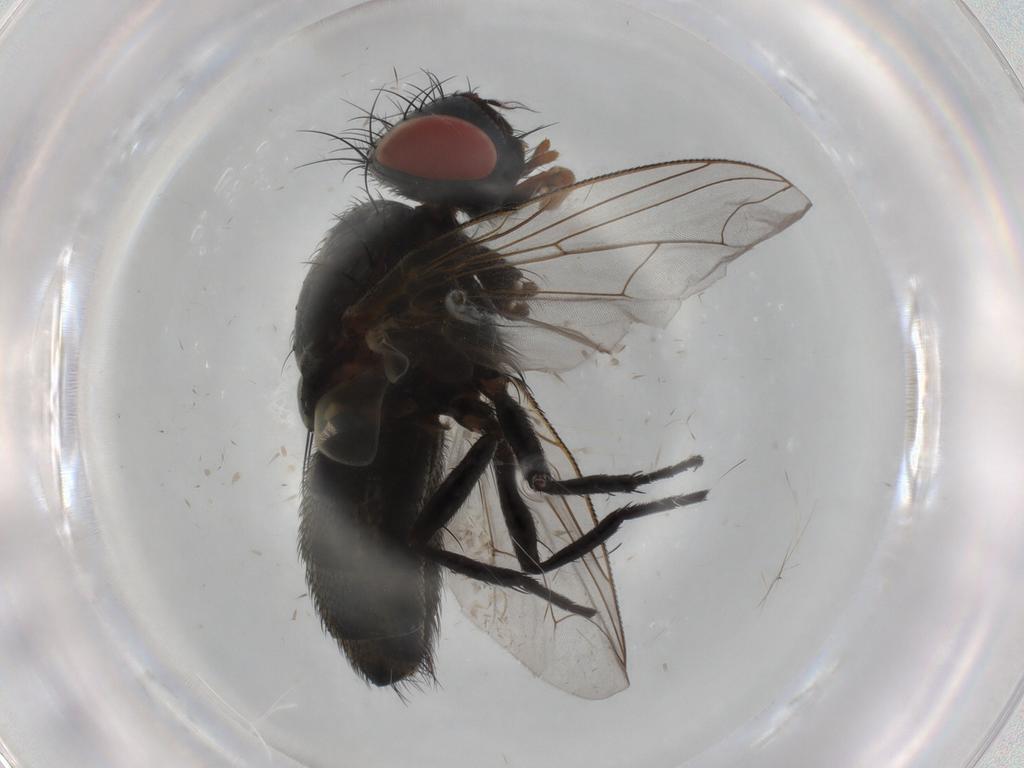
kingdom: Animalia
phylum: Arthropoda
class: Insecta
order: Diptera
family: Sarcophagidae
